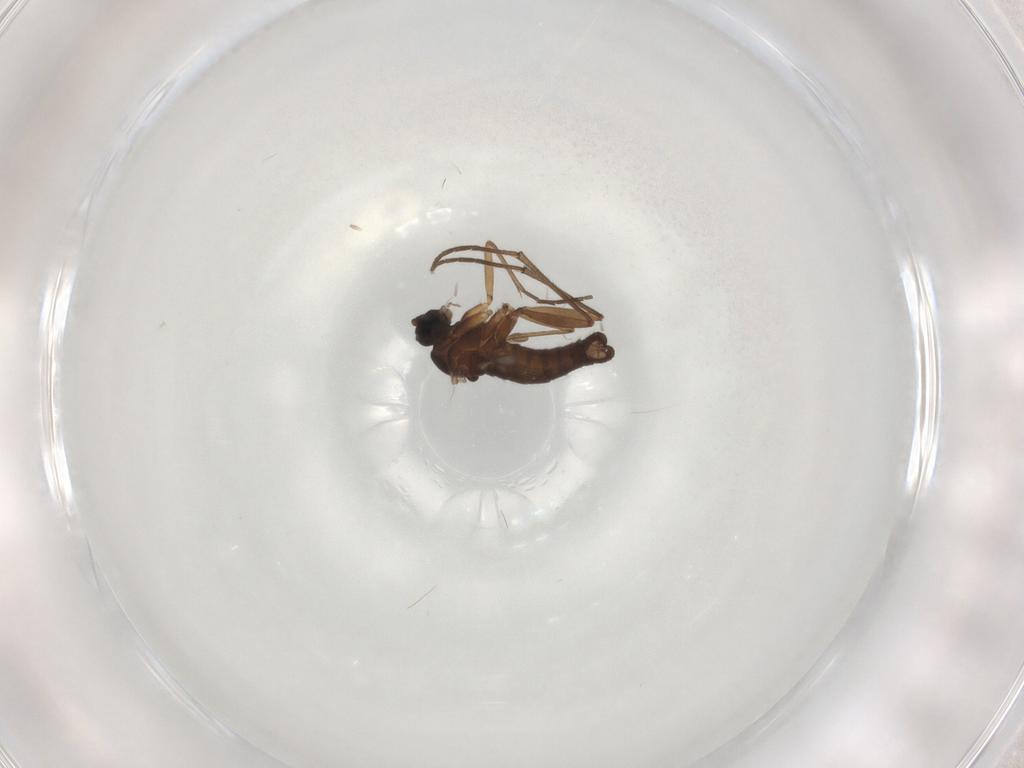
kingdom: Animalia
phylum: Arthropoda
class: Insecta
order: Diptera
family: Sciaridae
